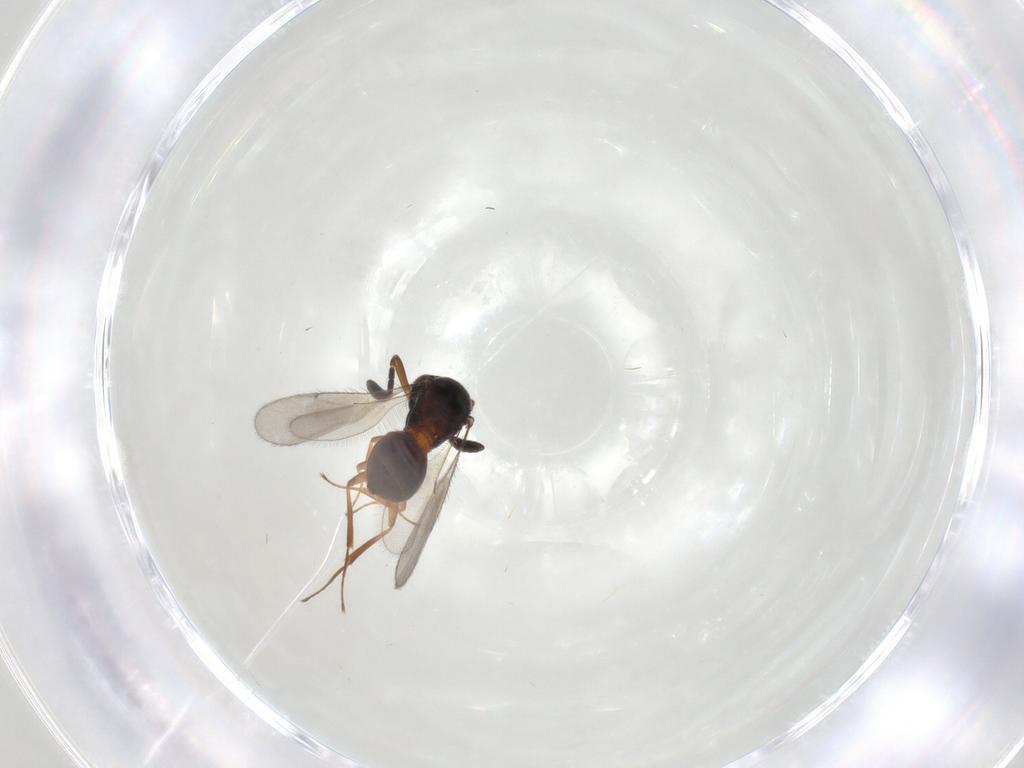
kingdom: Animalia
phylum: Arthropoda
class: Insecta
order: Hymenoptera
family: Scelionidae
